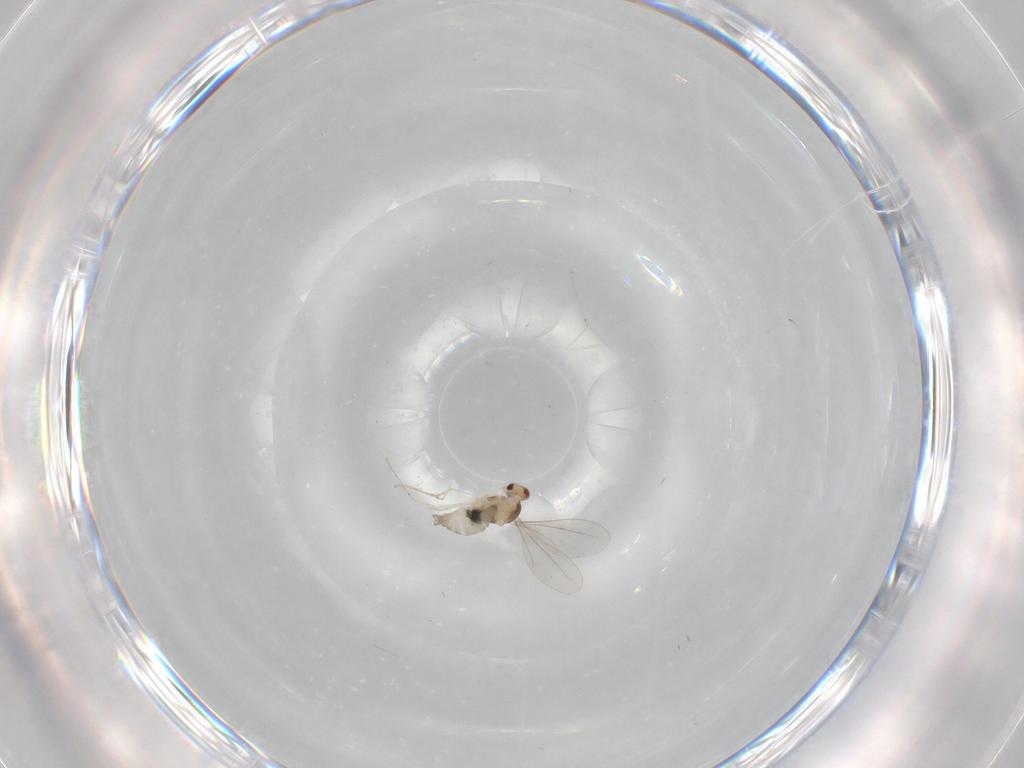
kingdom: Animalia
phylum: Arthropoda
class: Insecta
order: Diptera
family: Cecidomyiidae
